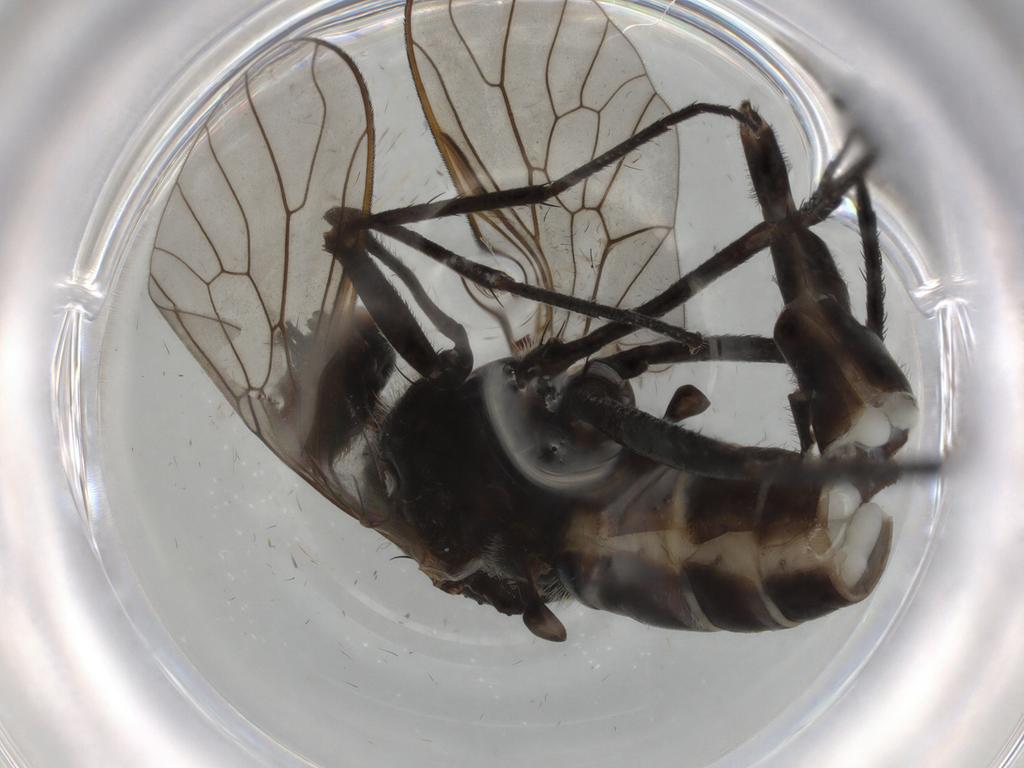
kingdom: Animalia
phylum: Arthropoda
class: Insecta
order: Diptera
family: Therevidae
